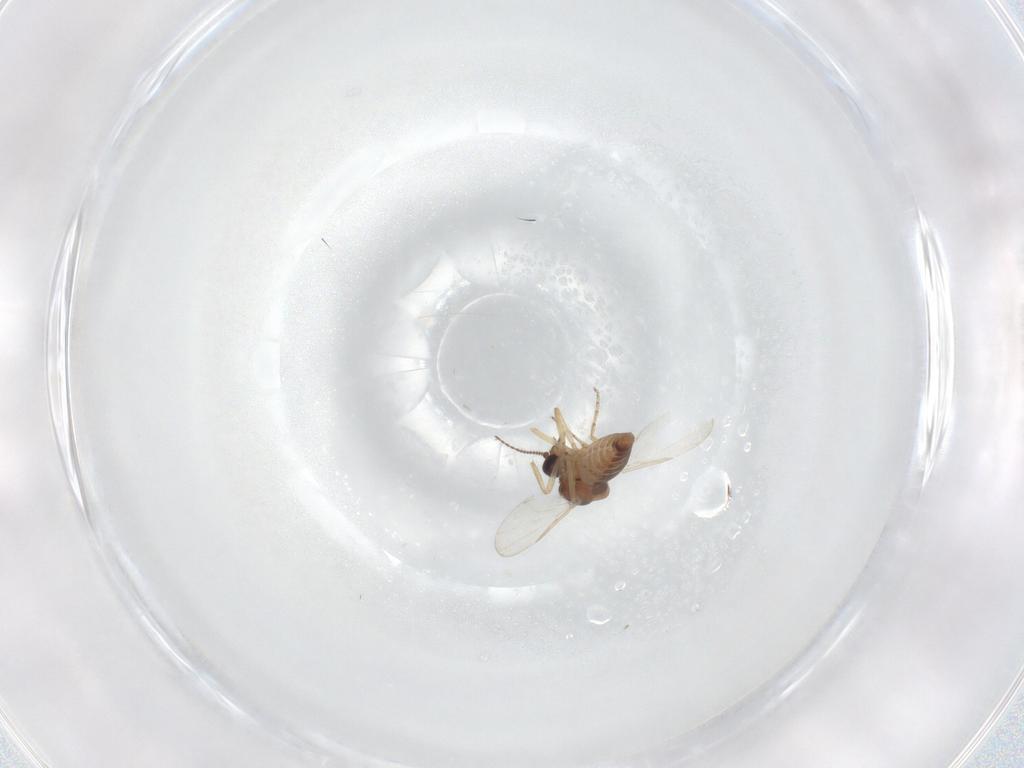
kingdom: Animalia
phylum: Arthropoda
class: Insecta
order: Diptera
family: Ceratopogonidae
